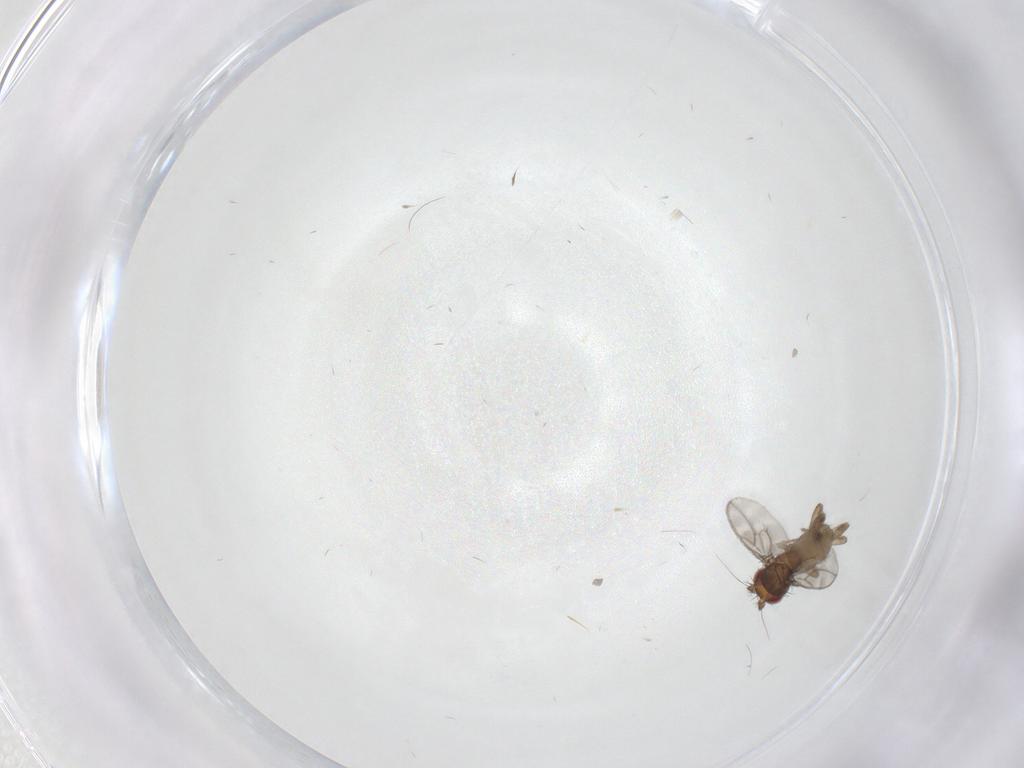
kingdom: Animalia
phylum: Arthropoda
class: Insecta
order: Diptera
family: Sphaeroceridae
